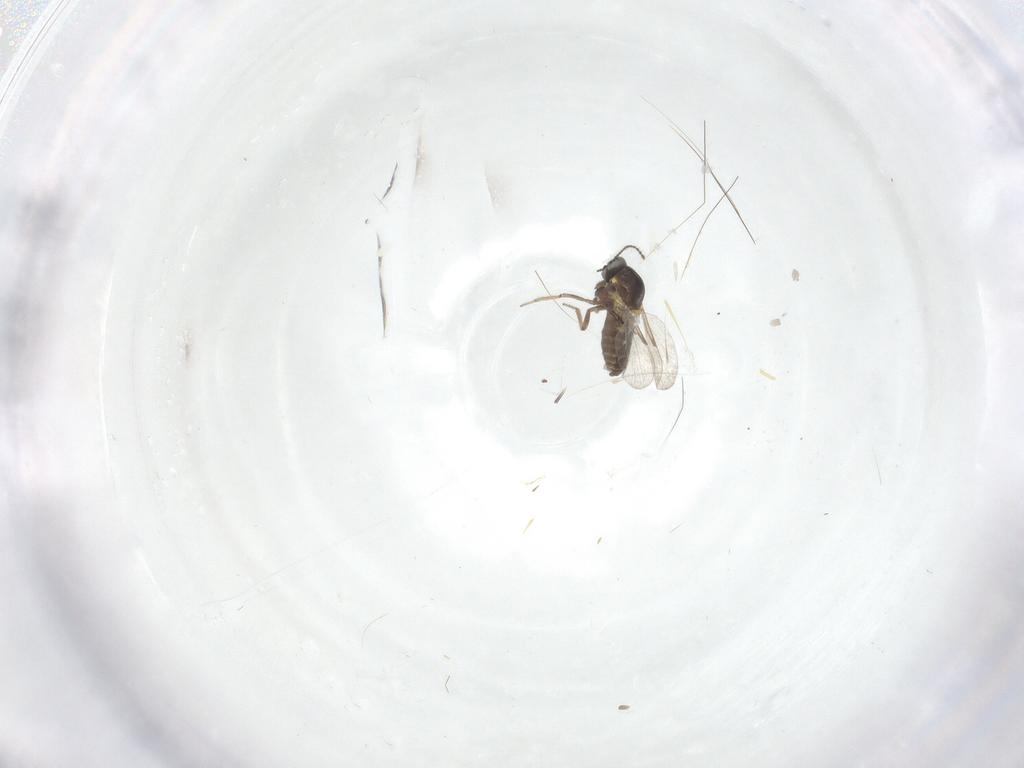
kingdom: Animalia
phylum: Arthropoda
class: Insecta
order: Diptera
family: Ceratopogonidae
